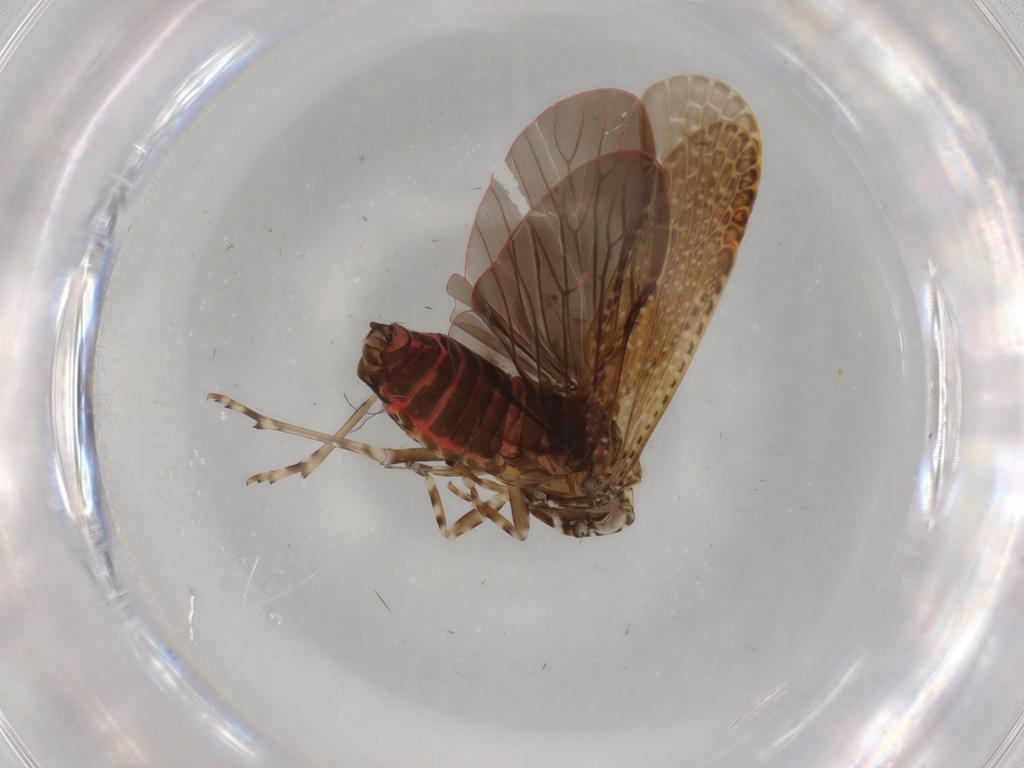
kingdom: Animalia
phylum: Arthropoda
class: Insecta
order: Hemiptera
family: Achilidae
